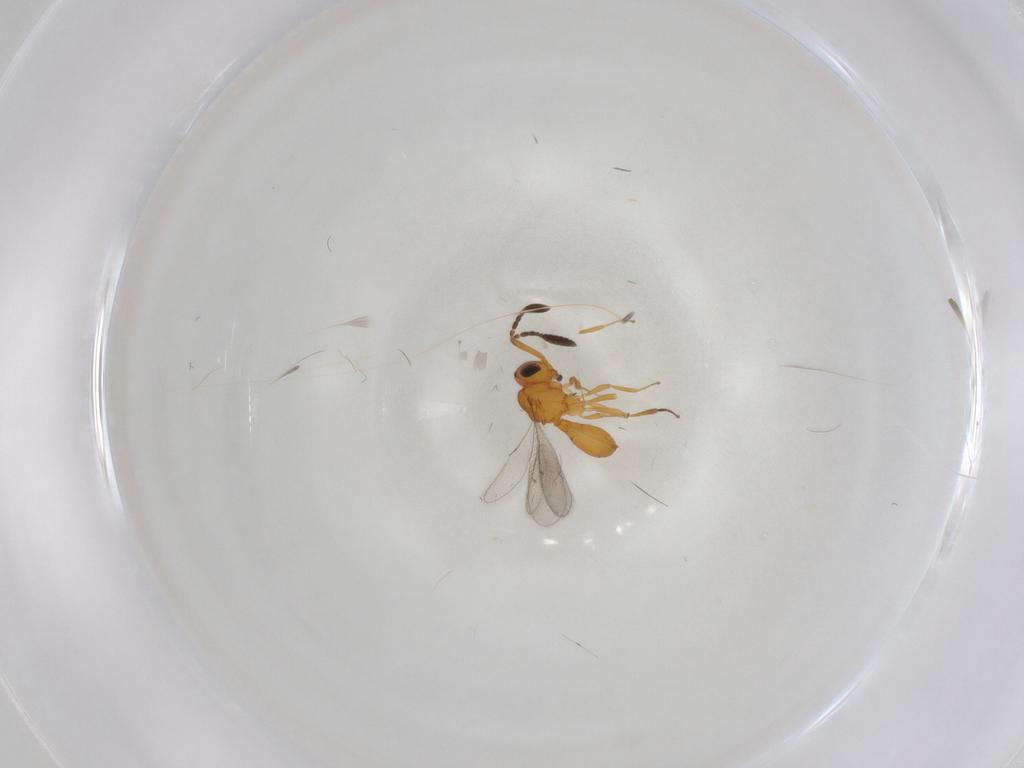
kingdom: Animalia
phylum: Arthropoda
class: Insecta
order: Hymenoptera
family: Scelionidae
